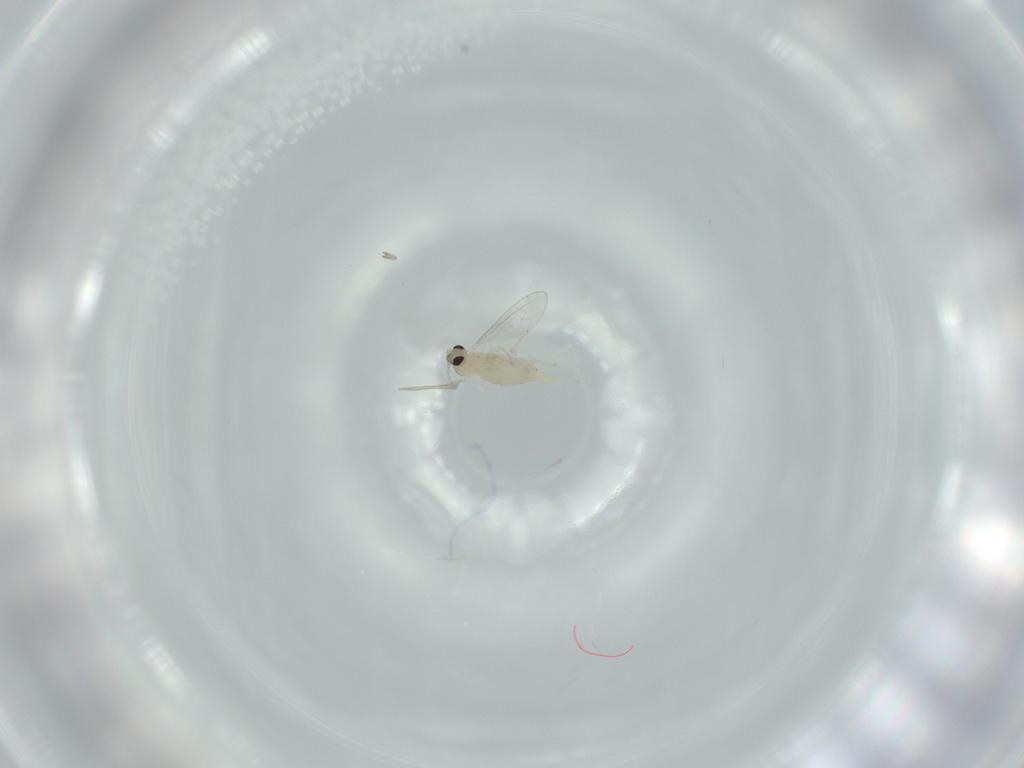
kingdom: Animalia
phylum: Arthropoda
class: Insecta
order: Diptera
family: Cecidomyiidae
